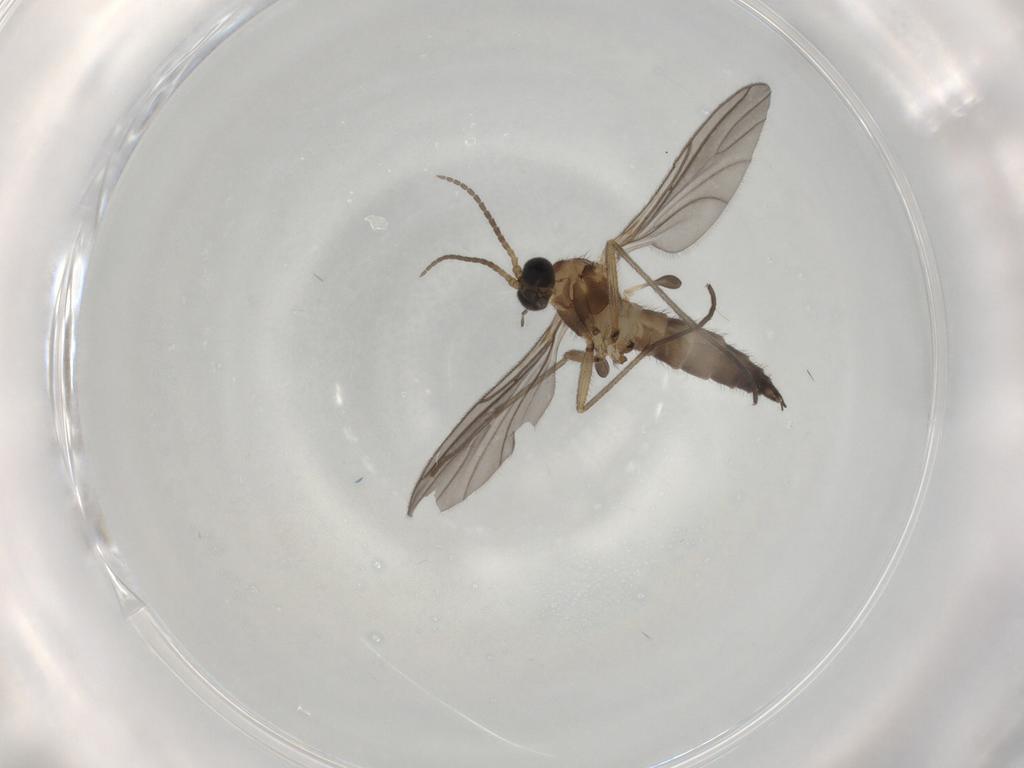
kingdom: Animalia
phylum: Arthropoda
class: Insecta
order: Diptera
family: Sciaridae
